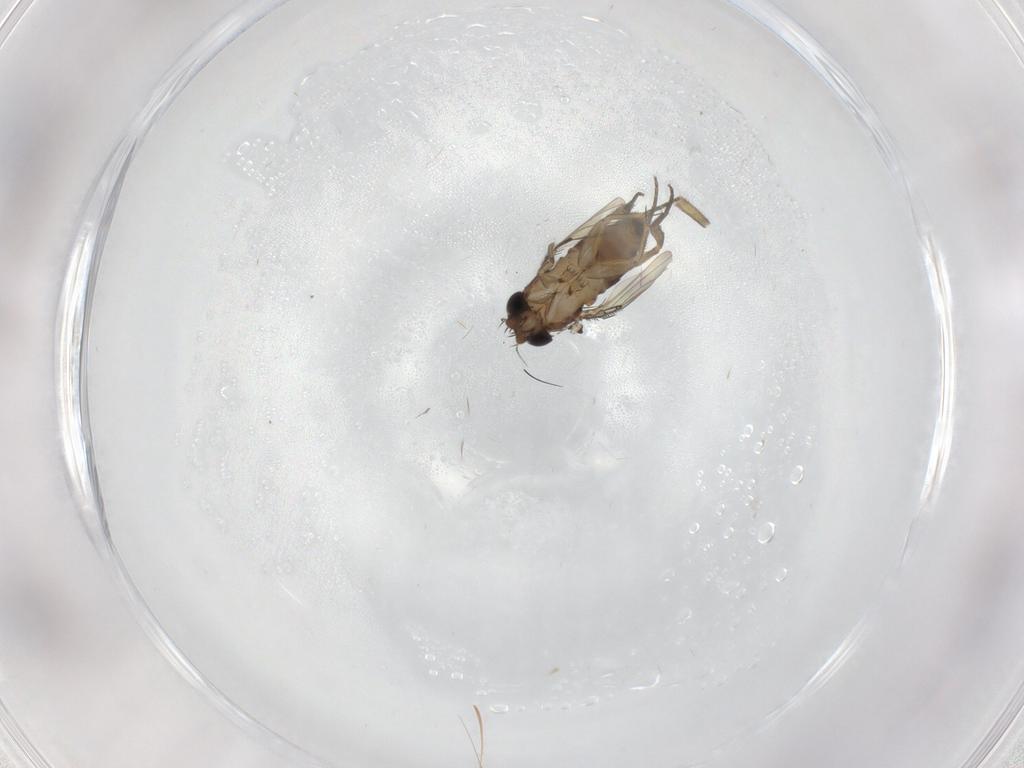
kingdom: Animalia
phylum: Arthropoda
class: Insecta
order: Diptera
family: Phoridae
